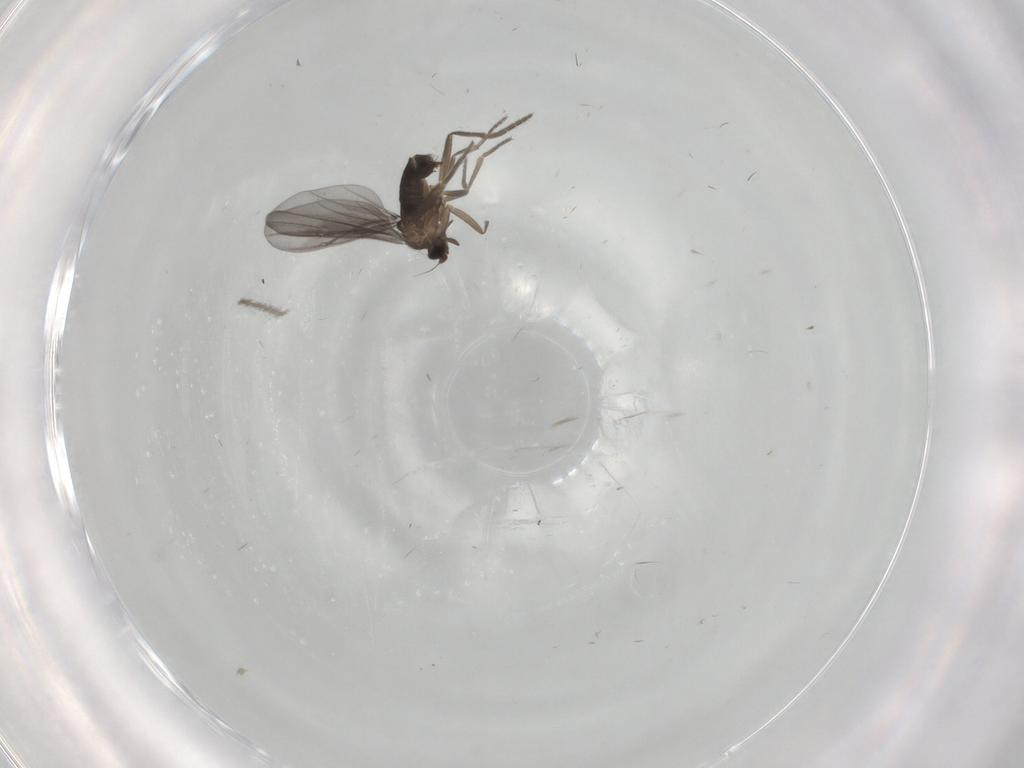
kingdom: Animalia
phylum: Arthropoda
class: Insecta
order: Diptera
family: Phoridae
